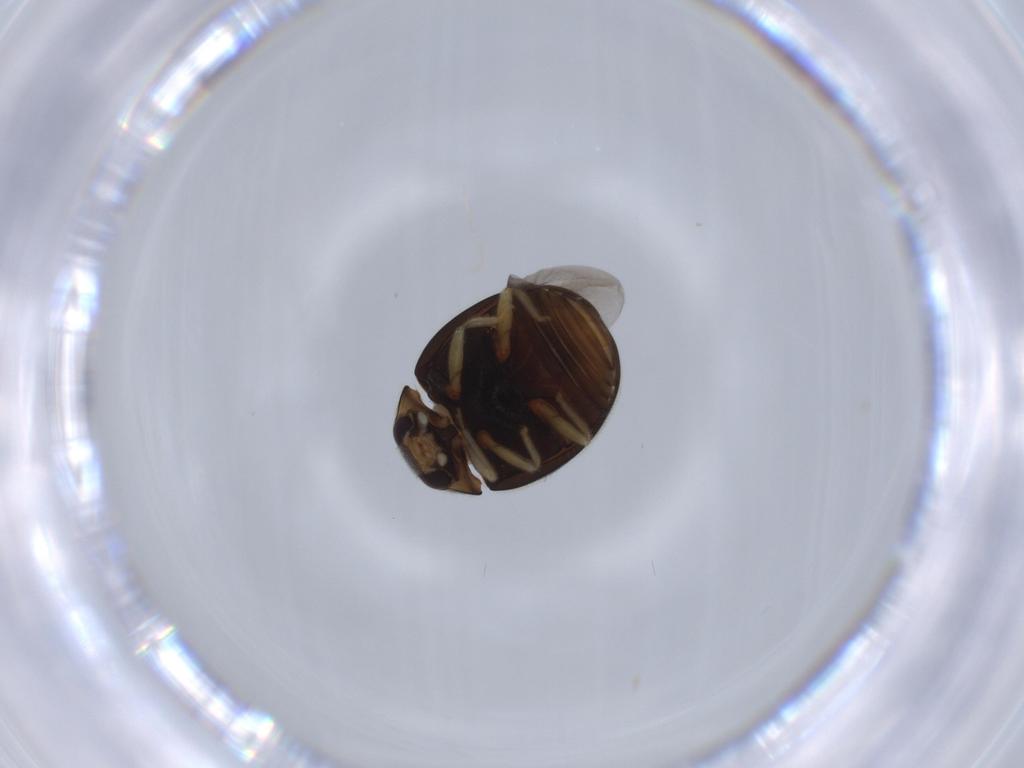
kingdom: Animalia
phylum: Arthropoda
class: Insecta
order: Coleoptera
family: Coccinellidae
